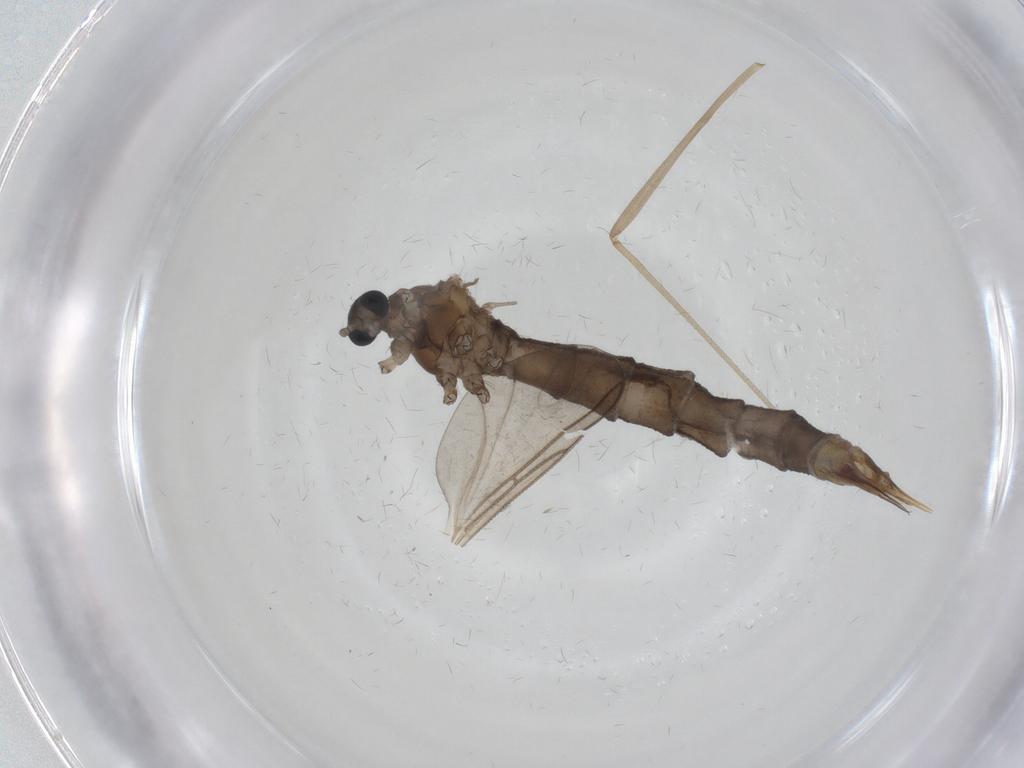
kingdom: Animalia
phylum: Arthropoda
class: Insecta
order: Diptera
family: Limoniidae
